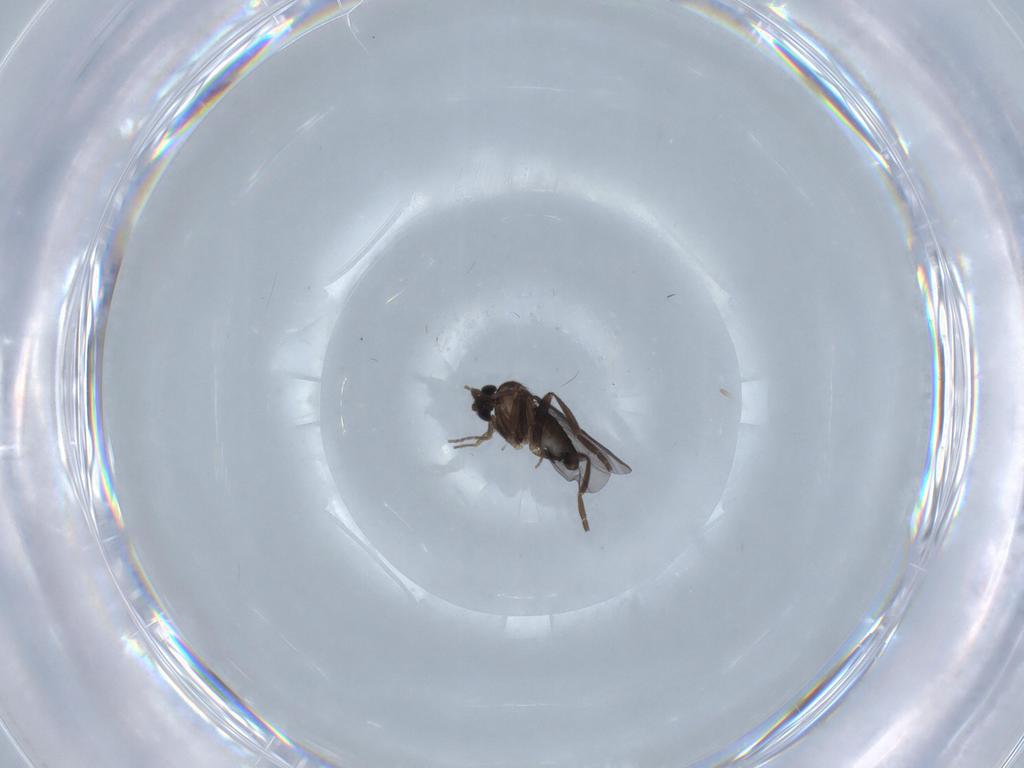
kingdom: Animalia
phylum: Arthropoda
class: Insecta
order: Diptera
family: Phoridae
